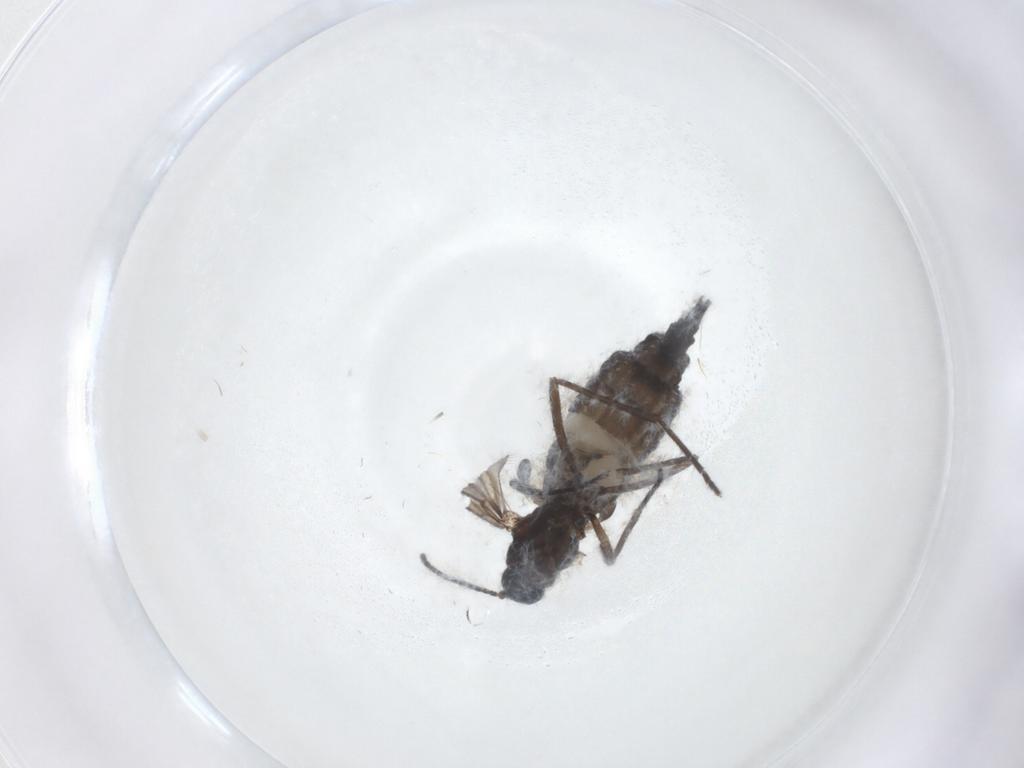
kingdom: Animalia
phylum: Arthropoda
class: Insecta
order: Diptera
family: Sciaridae
